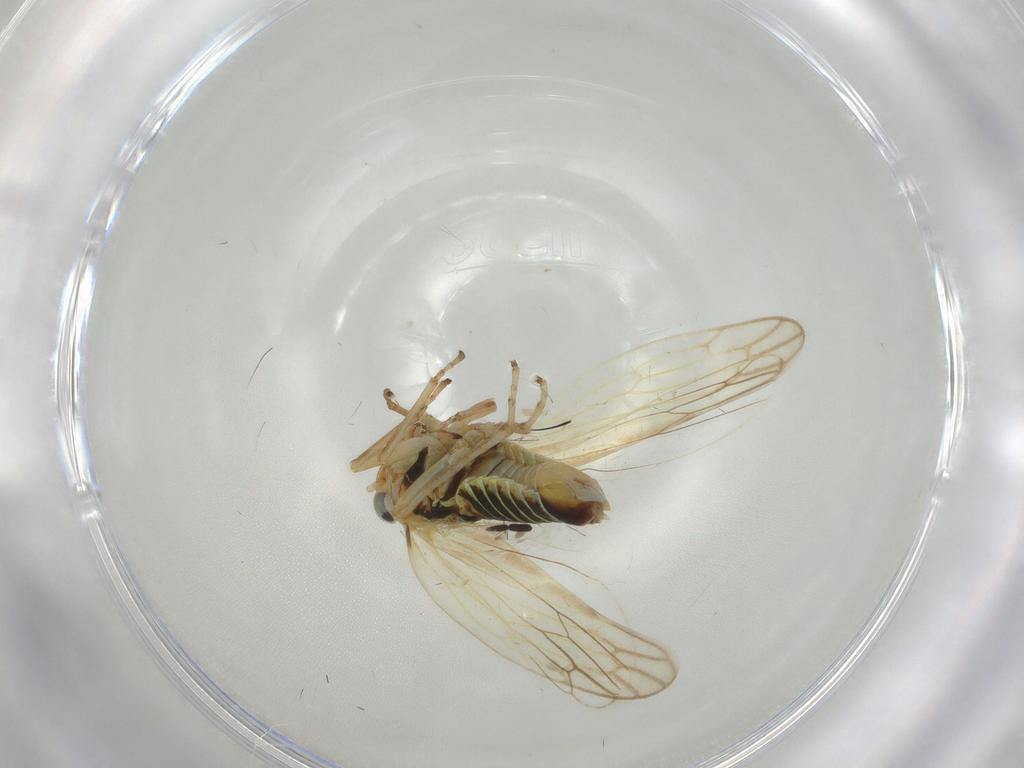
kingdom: Animalia
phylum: Arthropoda
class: Insecta
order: Hemiptera
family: Cicadellidae
